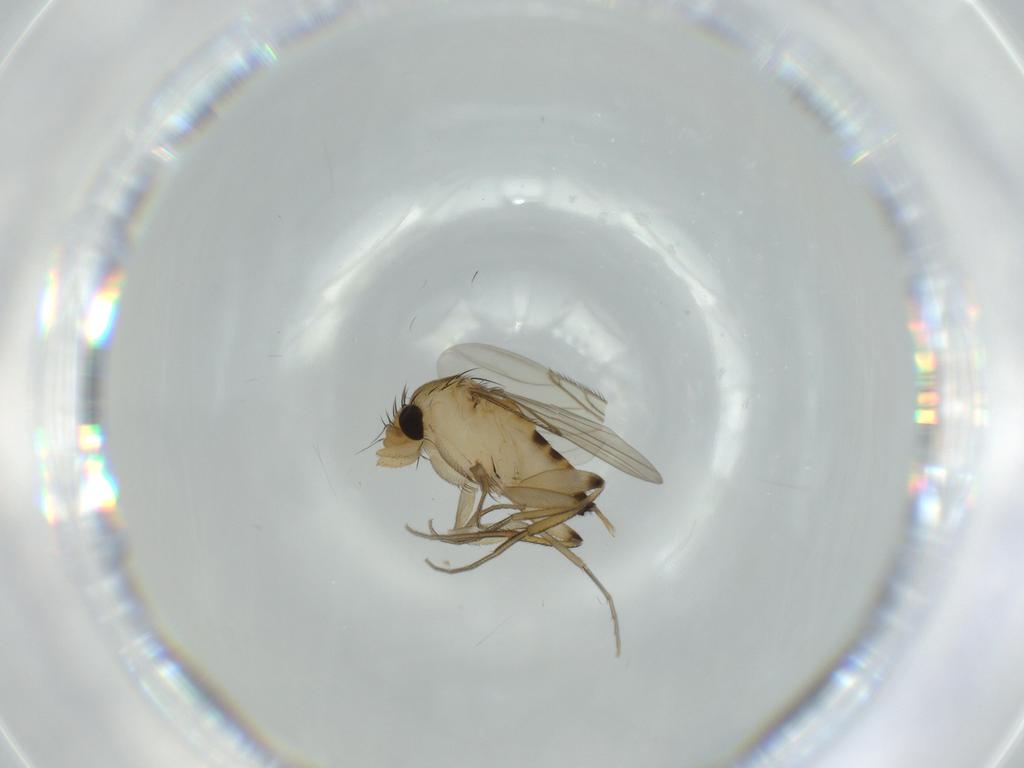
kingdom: Animalia
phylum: Arthropoda
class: Insecta
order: Diptera
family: Phoridae
